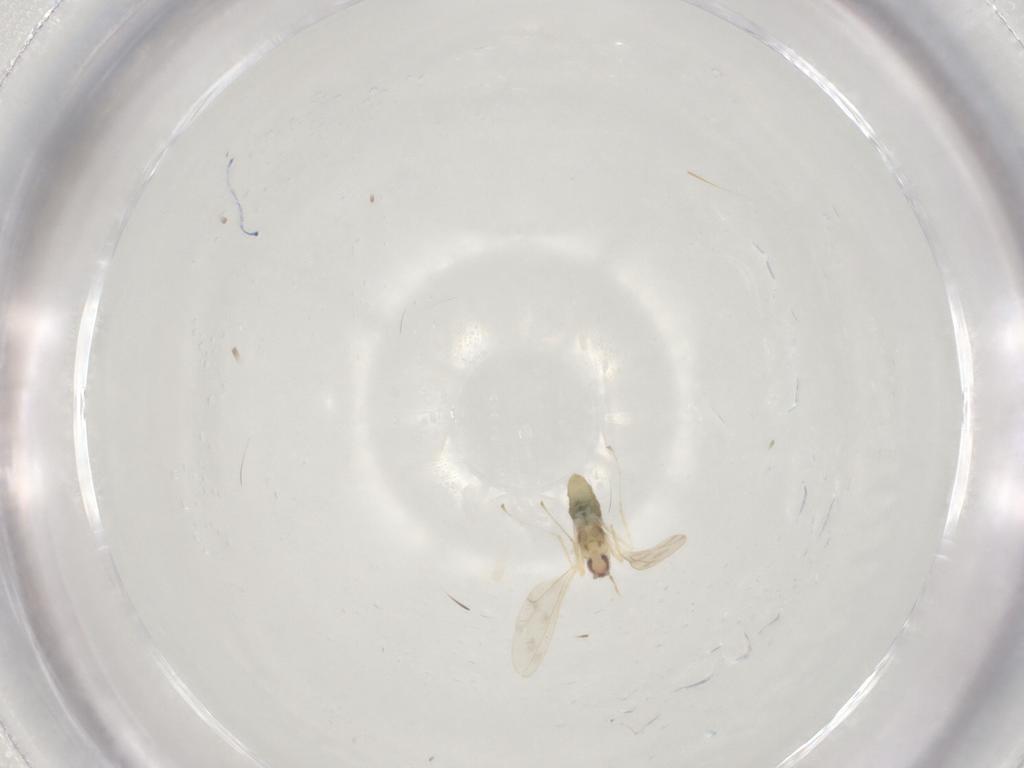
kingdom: Animalia
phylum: Arthropoda
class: Insecta
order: Diptera
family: Cecidomyiidae
